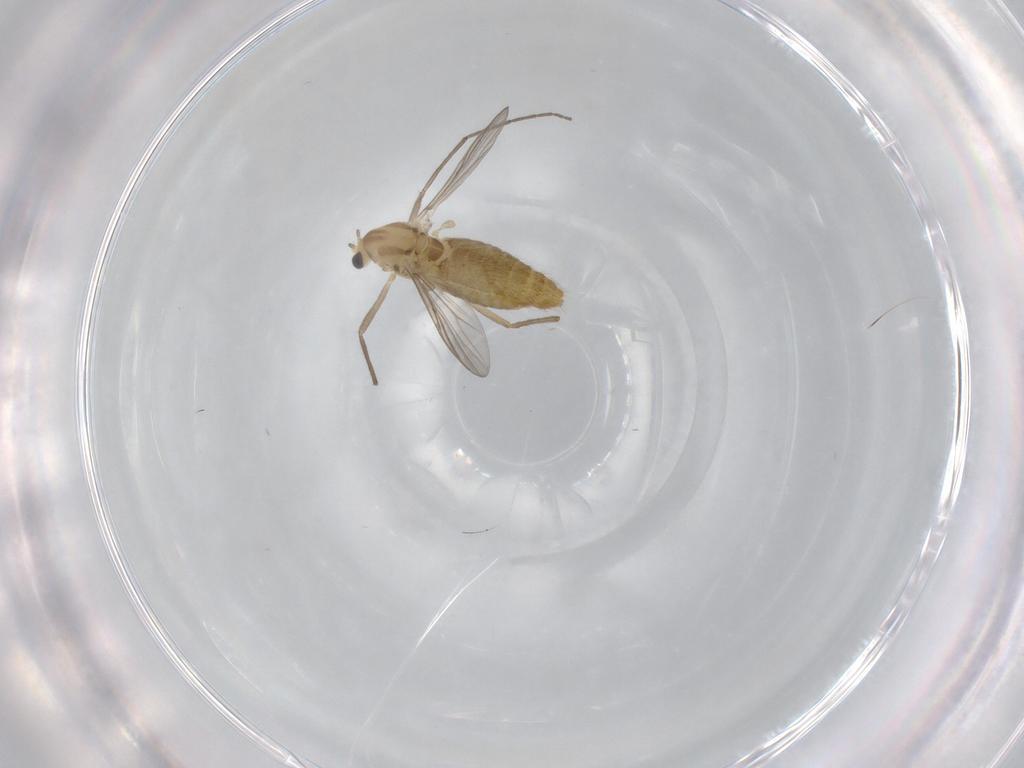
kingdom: Animalia
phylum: Arthropoda
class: Insecta
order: Diptera
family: Chironomidae
